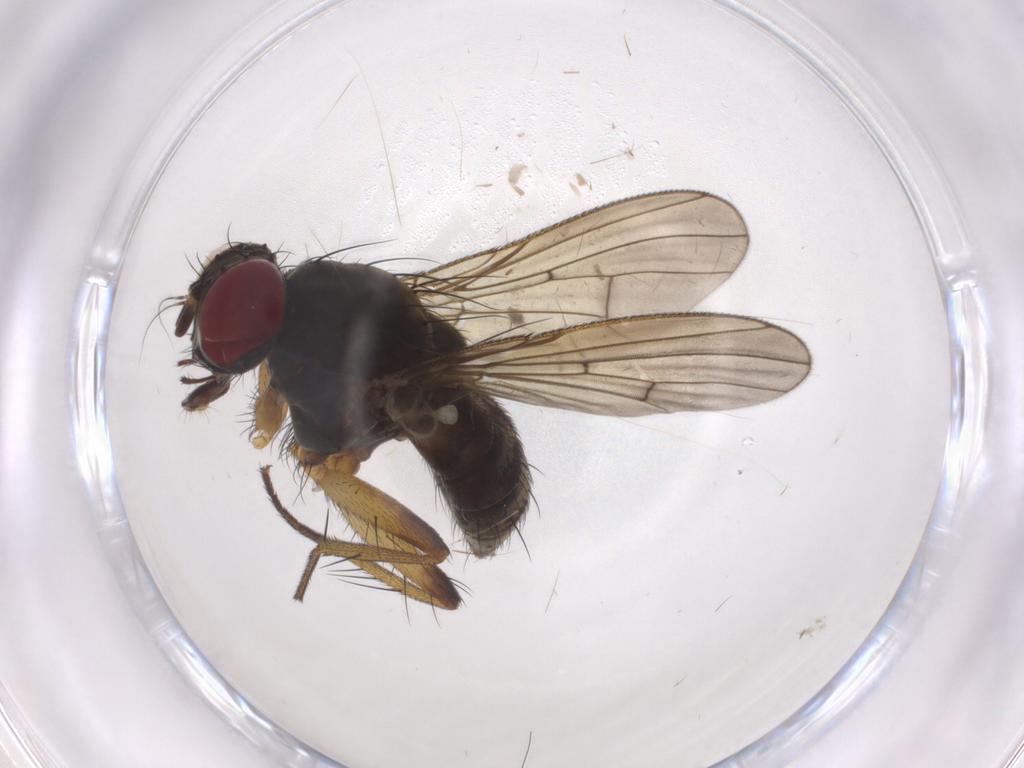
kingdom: Animalia
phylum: Arthropoda
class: Insecta
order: Diptera
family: Muscidae
